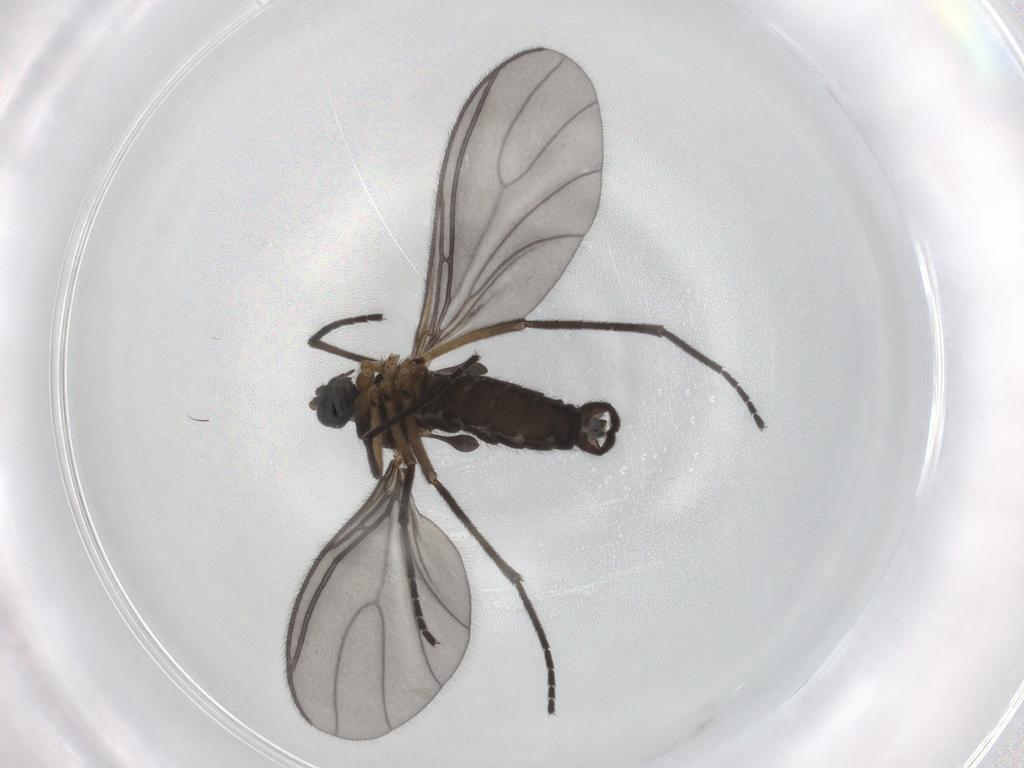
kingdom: Animalia
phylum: Arthropoda
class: Insecta
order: Diptera
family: Sciaridae
